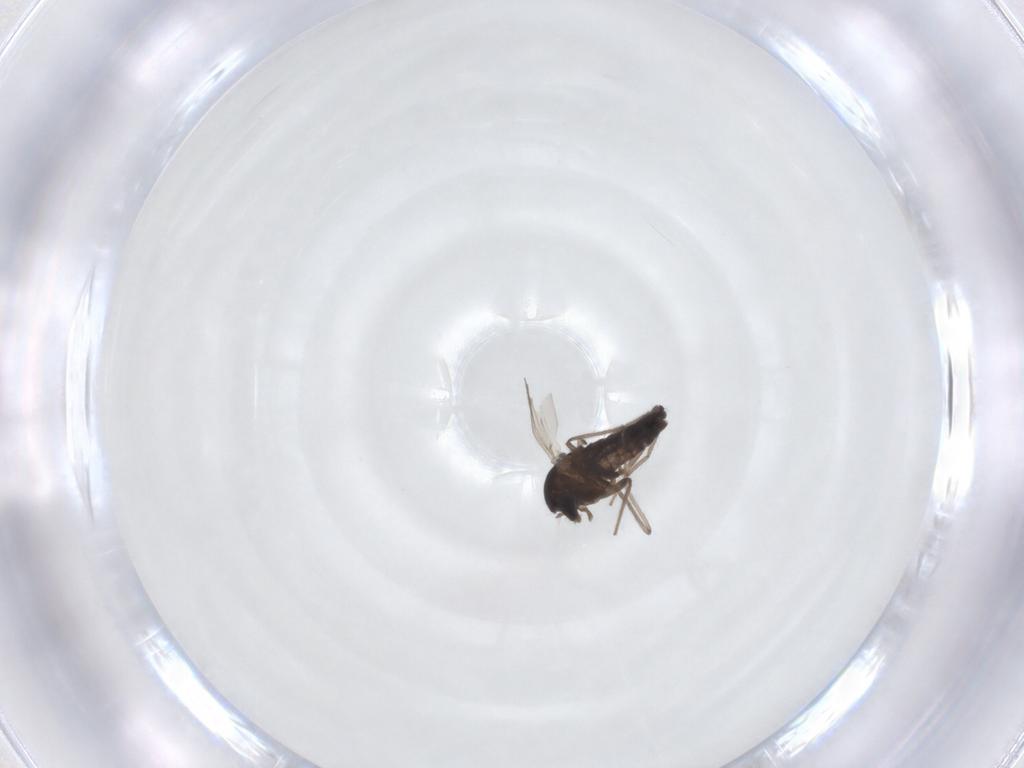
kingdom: Animalia
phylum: Arthropoda
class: Insecta
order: Diptera
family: Chironomidae
